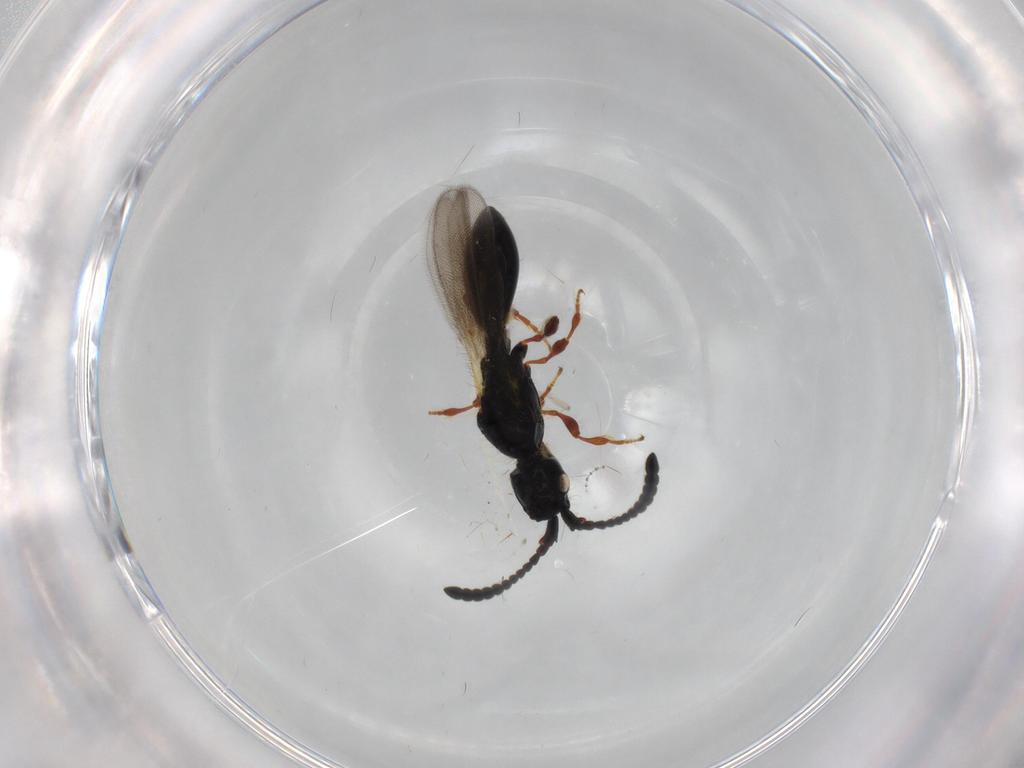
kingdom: Animalia
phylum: Arthropoda
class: Insecta
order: Hymenoptera
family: Diapriidae
